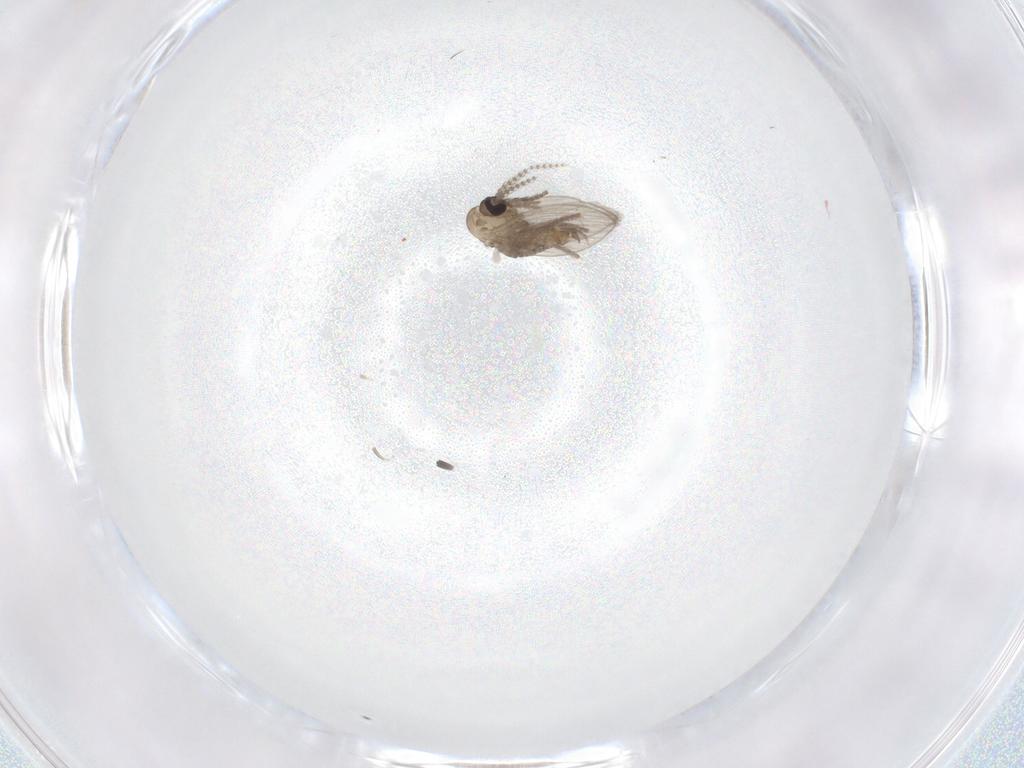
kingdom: Animalia
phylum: Arthropoda
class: Insecta
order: Diptera
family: Psychodidae
